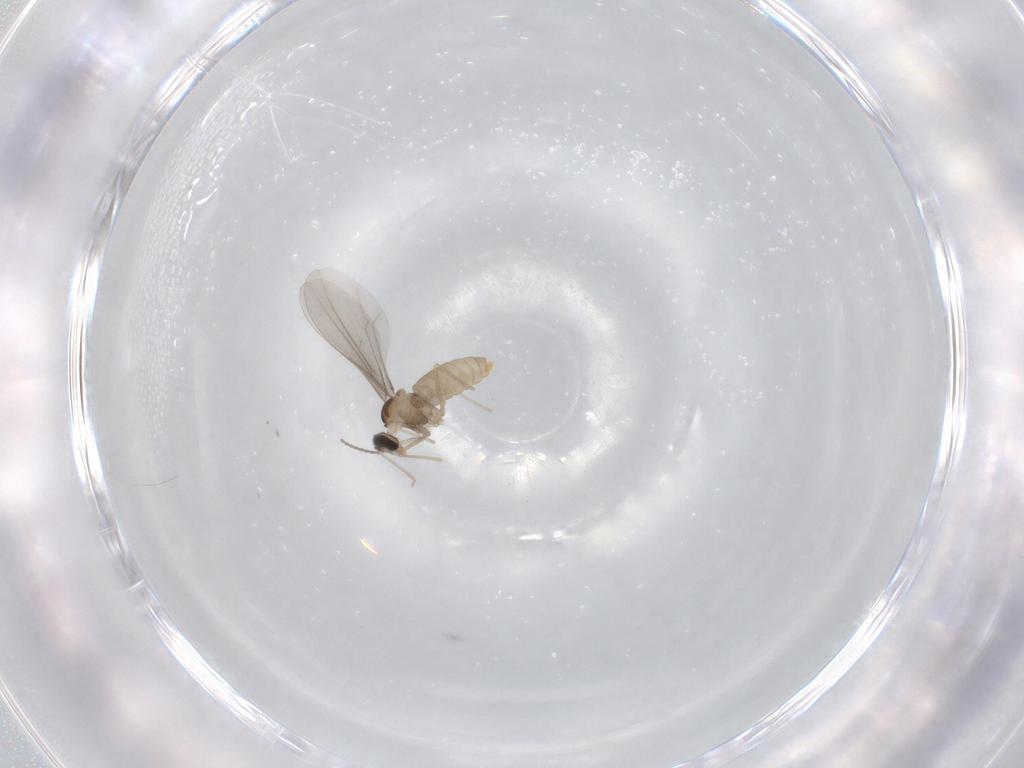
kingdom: Animalia
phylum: Arthropoda
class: Insecta
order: Diptera
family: Cecidomyiidae
